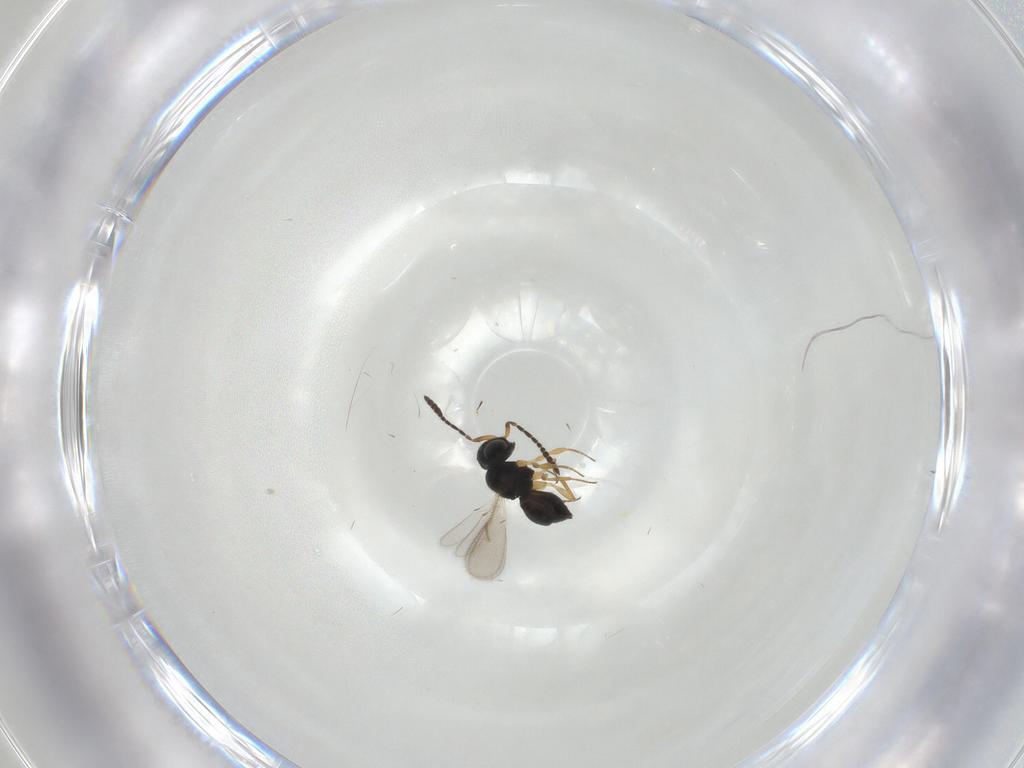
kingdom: Animalia
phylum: Arthropoda
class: Insecta
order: Hymenoptera
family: Scelionidae
